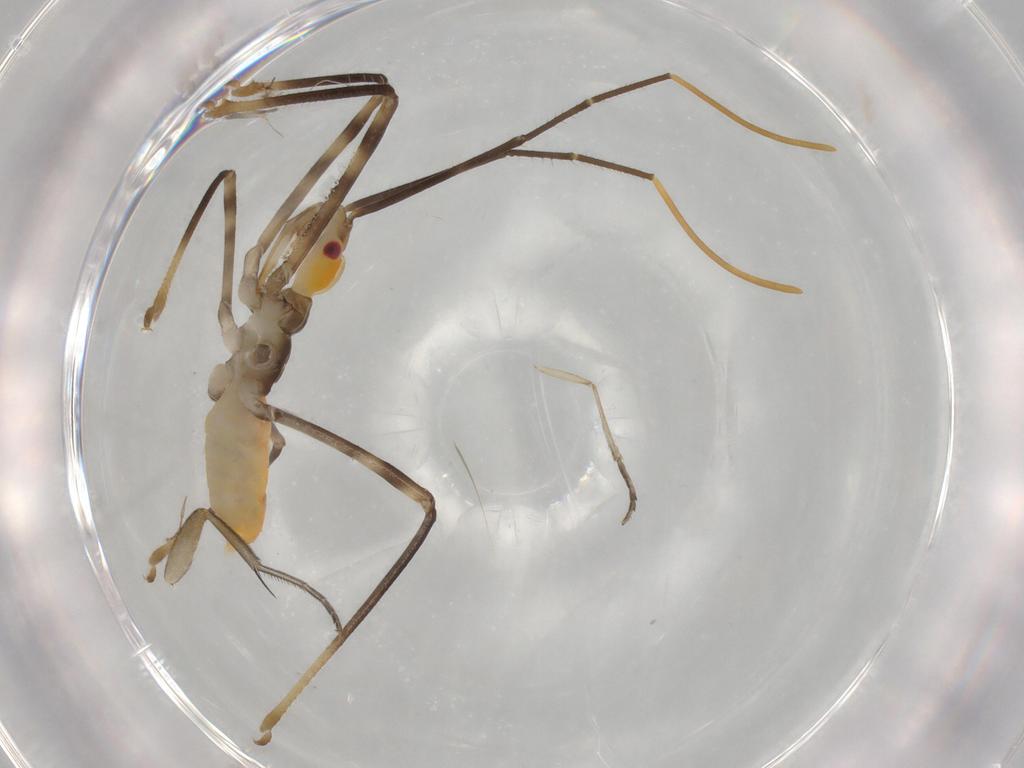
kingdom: Animalia
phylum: Arthropoda
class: Insecta
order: Hemiptera
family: Reduviidae
